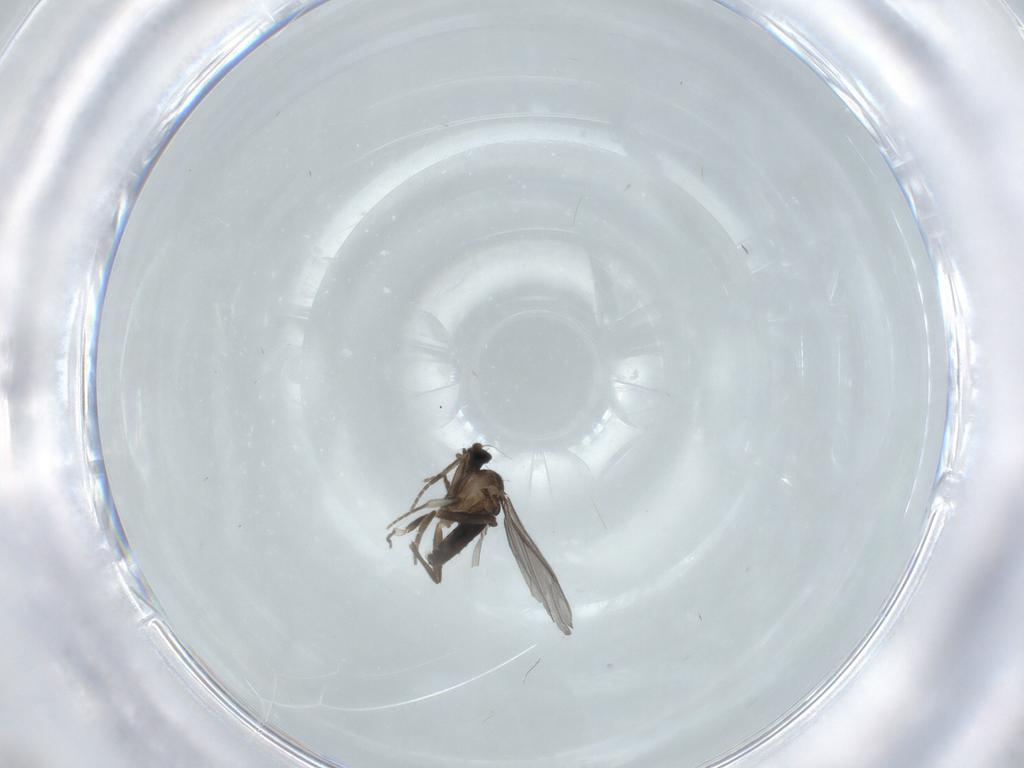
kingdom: Animalia
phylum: Arthropoda
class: Insecta
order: Diptera
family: Phoridae
